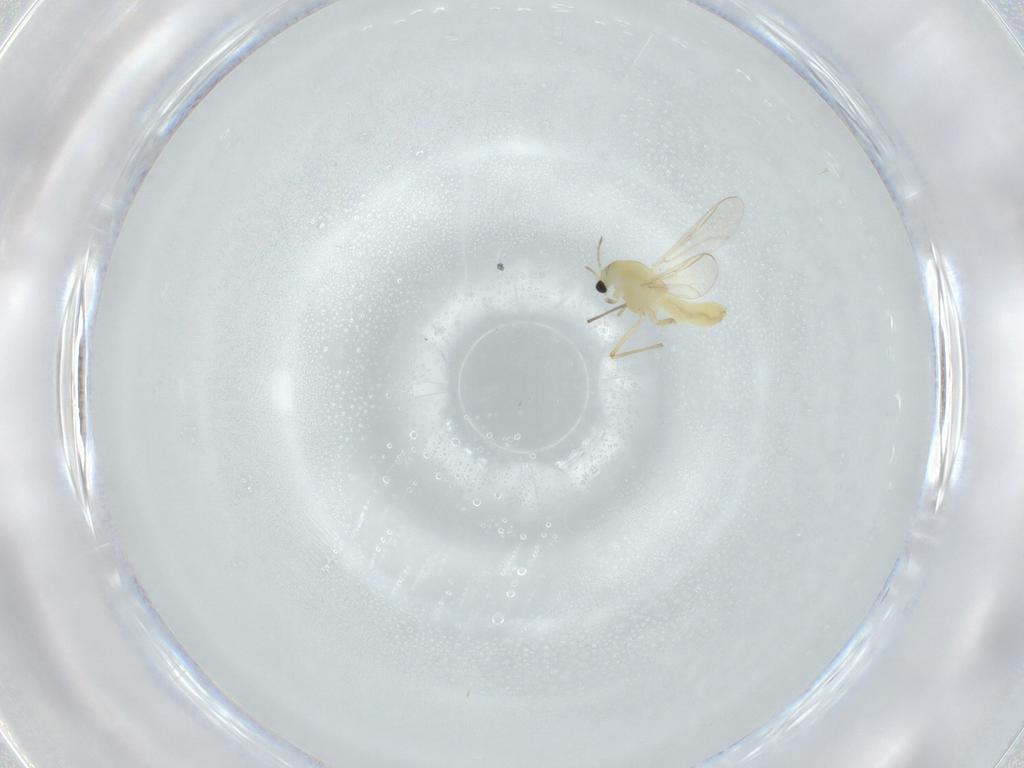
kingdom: Animalia
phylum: Arthropoda
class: Insecta
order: Diptera
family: Chironomidae
